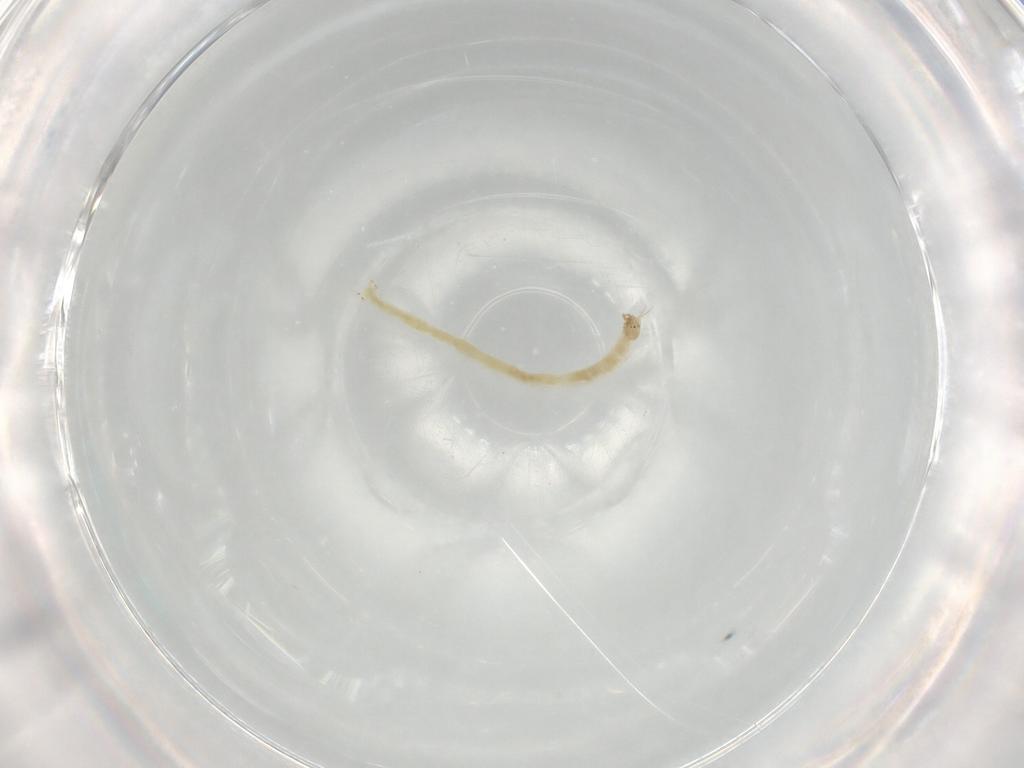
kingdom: Animalia
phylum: Arthropoda
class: Insecta
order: Diptera
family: Chironomidae
